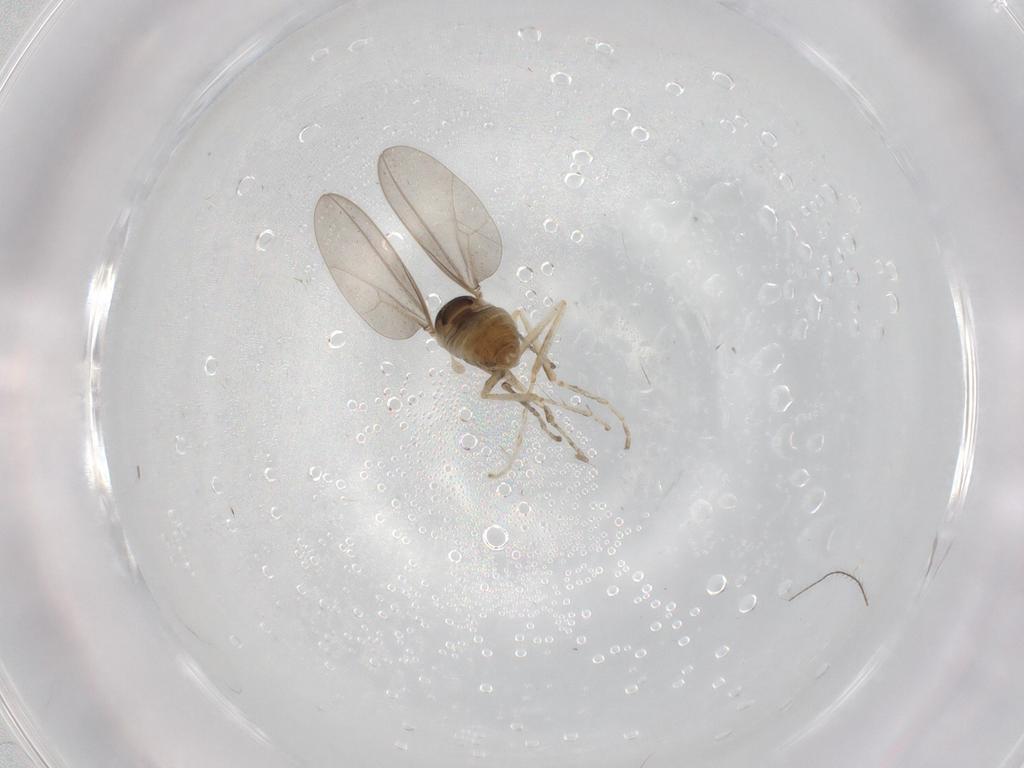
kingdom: Animalia
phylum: Arthropoda
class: Insecta
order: Diptera
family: Cecidomyiidae
